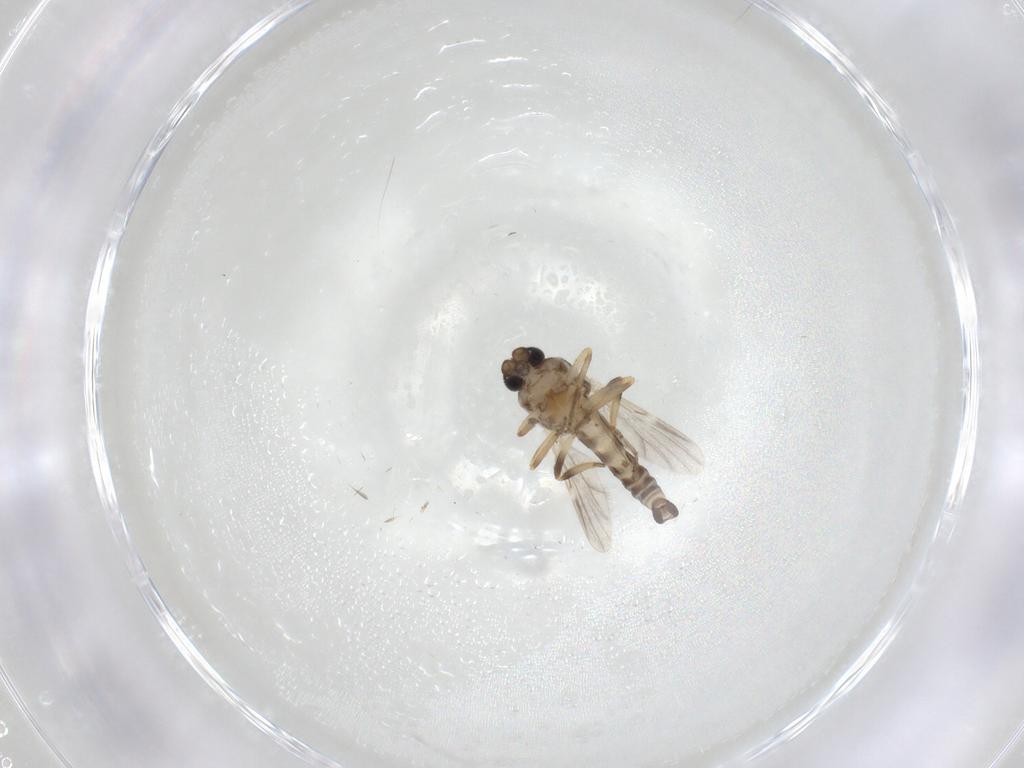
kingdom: Animalia
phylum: Arthropoda
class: Insecta
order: Diptera
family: Ceratopogonidae
